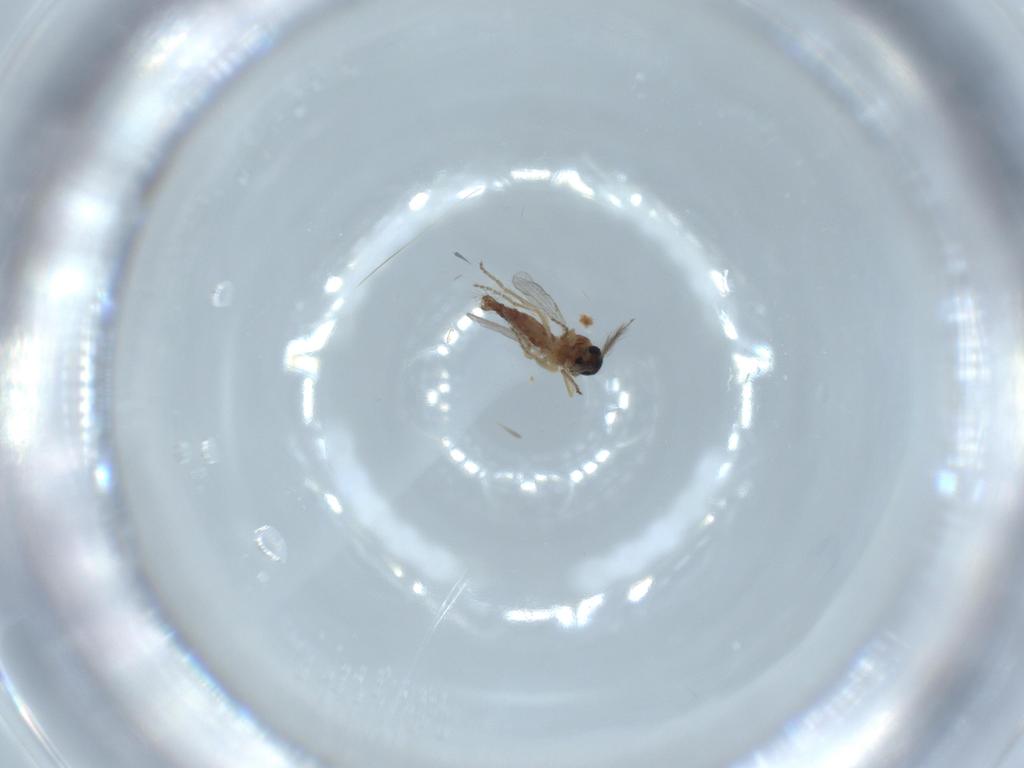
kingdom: Animalia
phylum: Arthropoda
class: Insecta
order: Diptera
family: Ceratopogonidae
